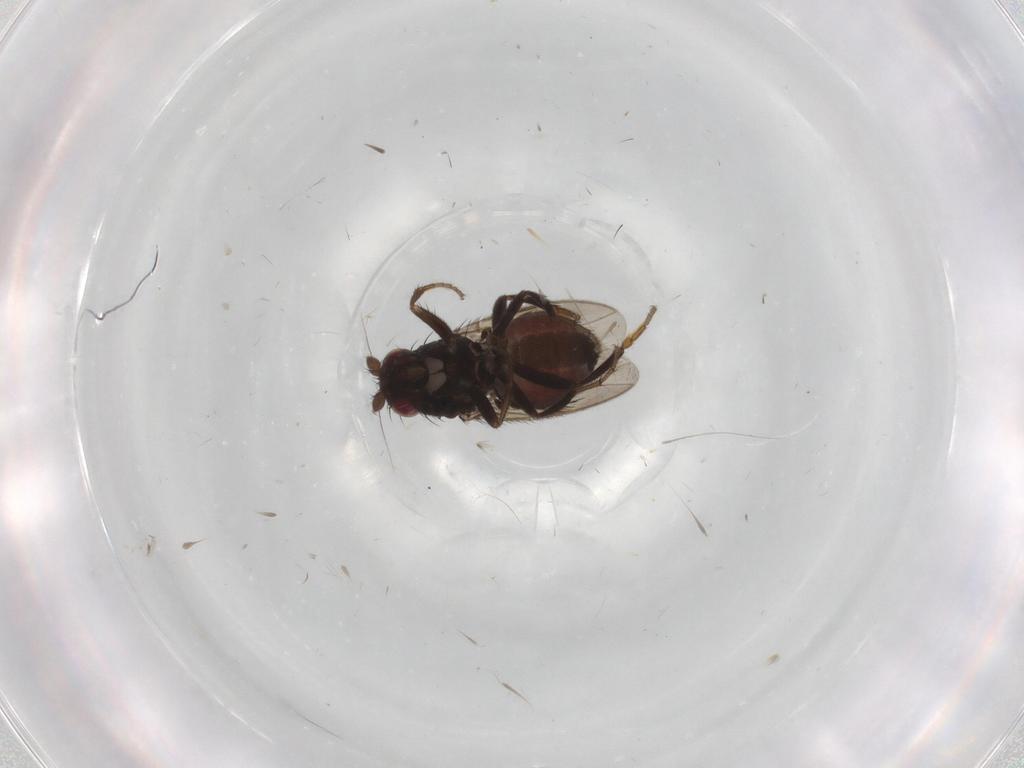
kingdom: Animalia
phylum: Arthropoda
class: Insecta
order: Diptera
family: Sphaeroceridae
